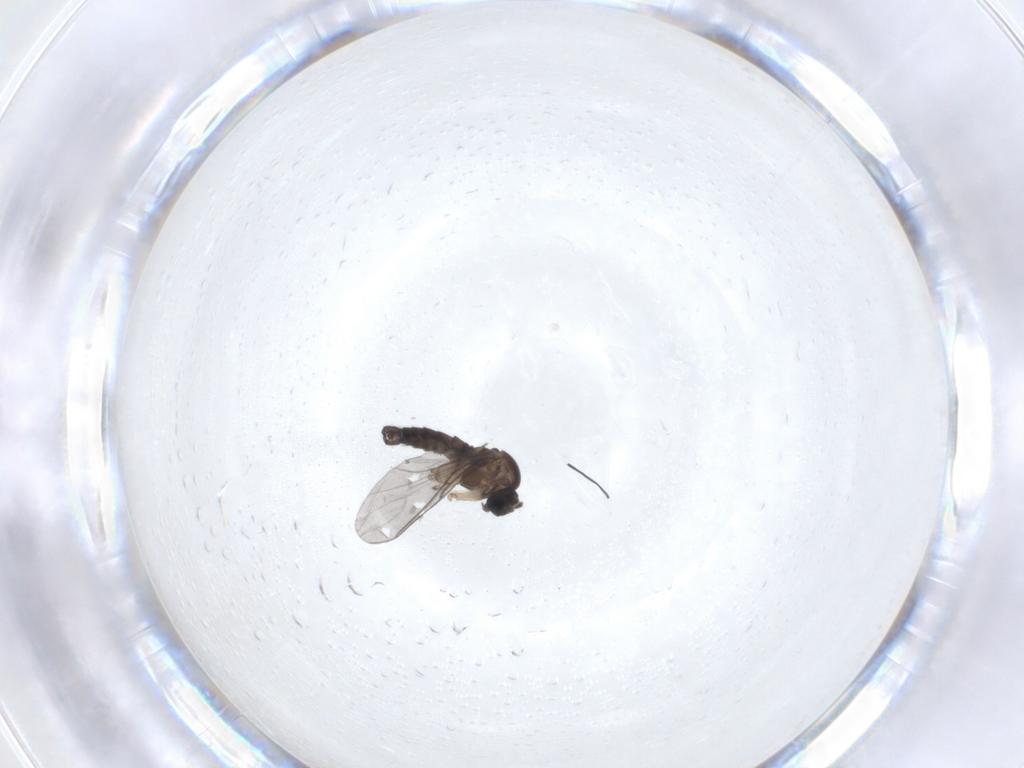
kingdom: Animalia
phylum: Arthropoda
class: Insecta
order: Diptera
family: Sciaridae
